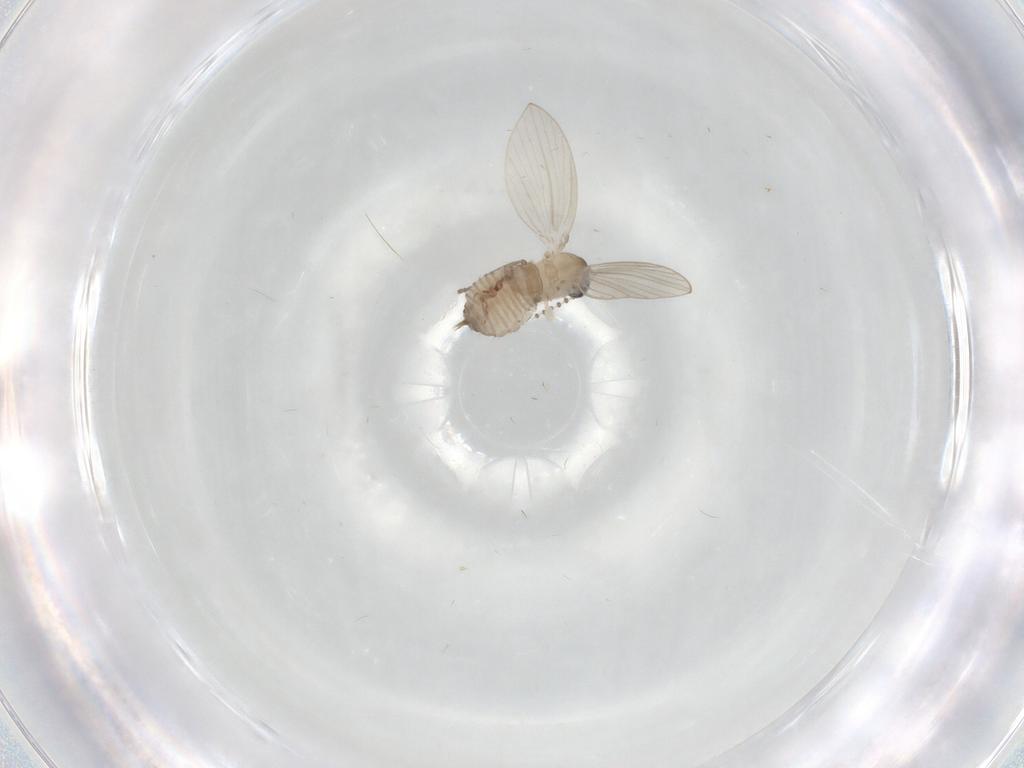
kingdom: Animalia
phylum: Arthropoda
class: Insecta
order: Diptera
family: Psychodidae
